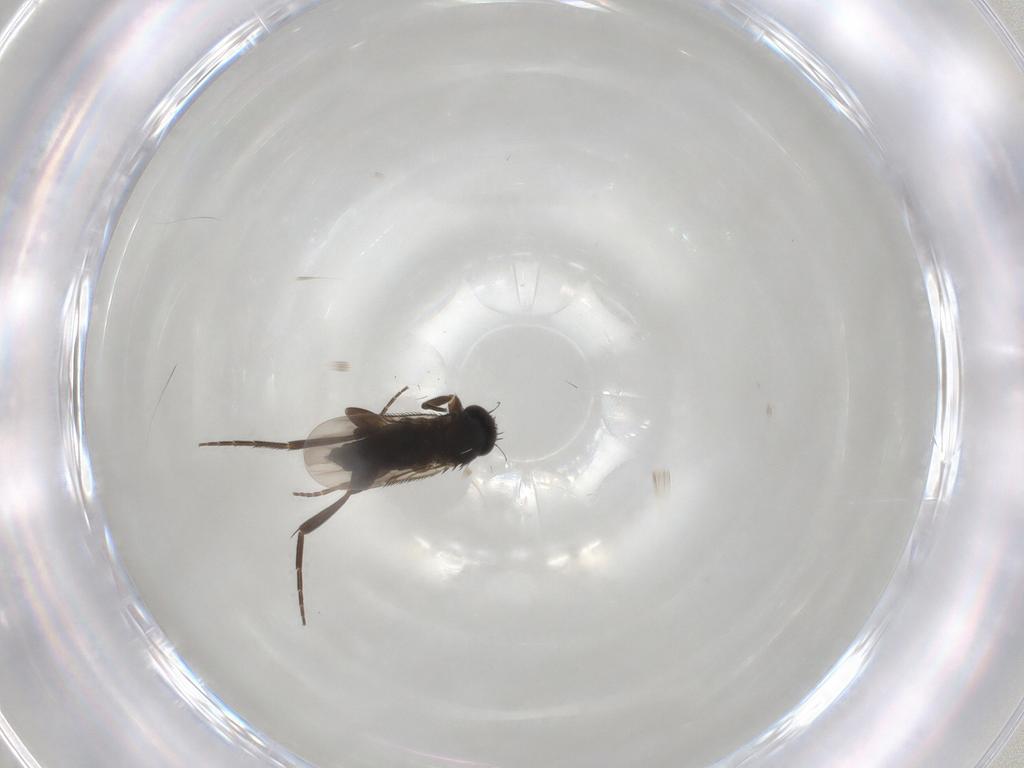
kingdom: Animalia
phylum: Arthropoda
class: Insecta
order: Diptera
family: Phoridae
